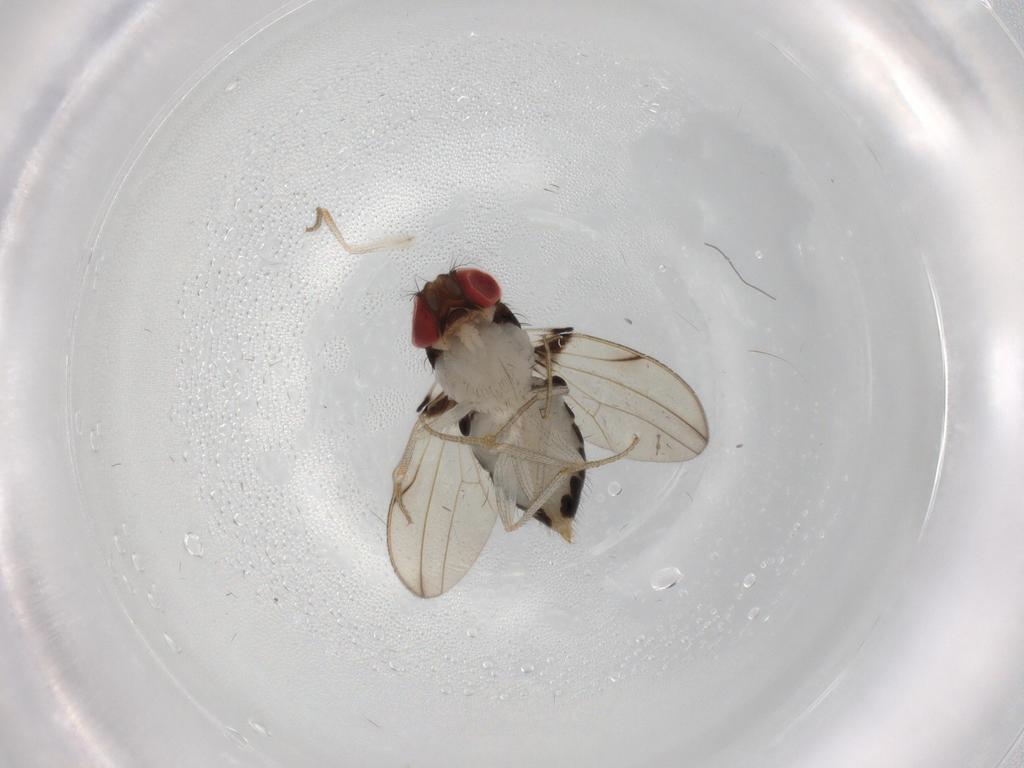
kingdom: Animalia
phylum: Arthropoda
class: Insecta
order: Diptera
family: Drosophilidae
